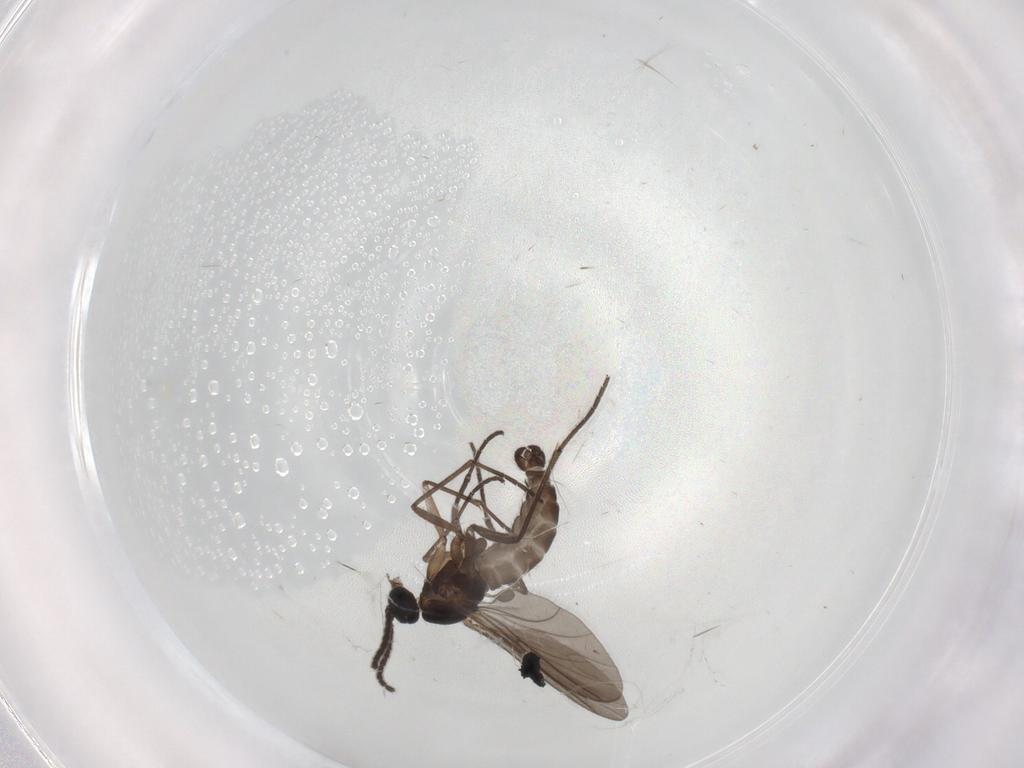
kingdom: Animalia
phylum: Arthropoda
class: Insecta
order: Diptera
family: Sciaridae
